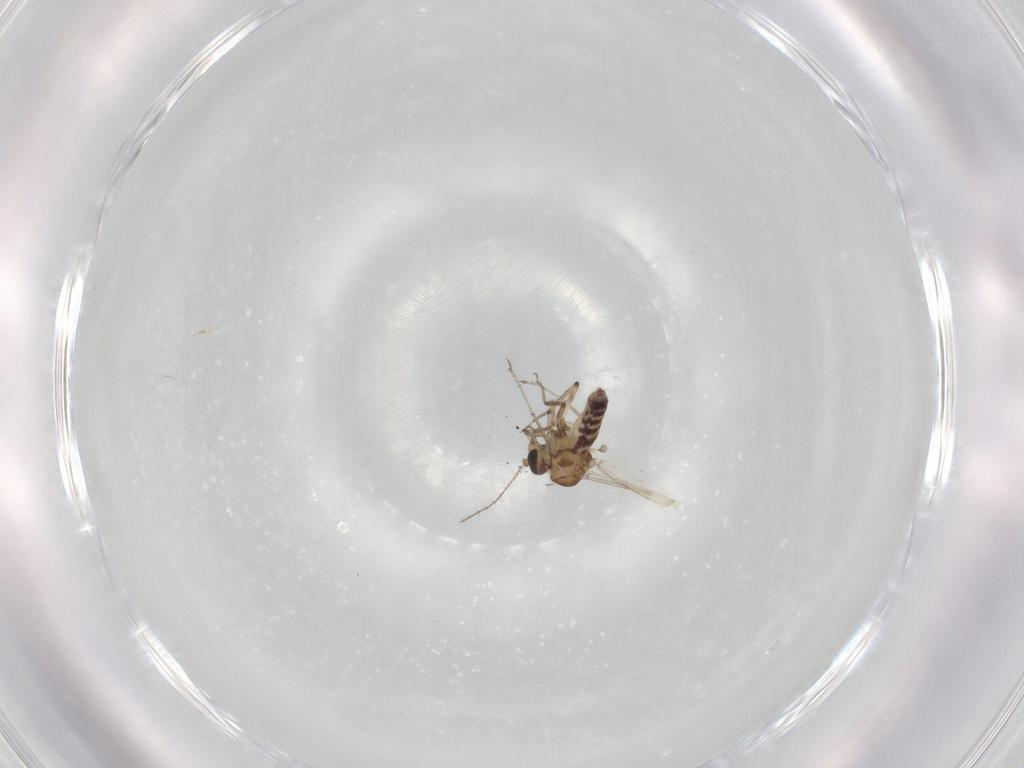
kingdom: Animalia
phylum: Arthropoda
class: Insecta
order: Diptera
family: Ceratopogonidae
